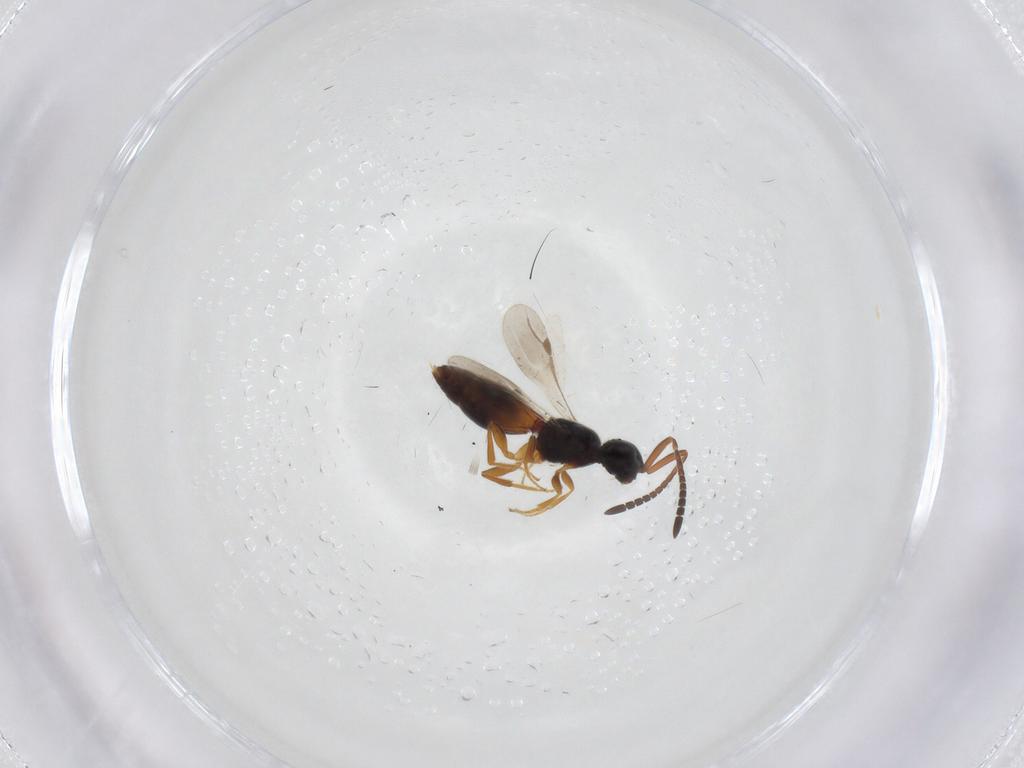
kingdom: Animalia
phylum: Arthropoda
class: Insecta
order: Hymenoptera
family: Megaspilidae
